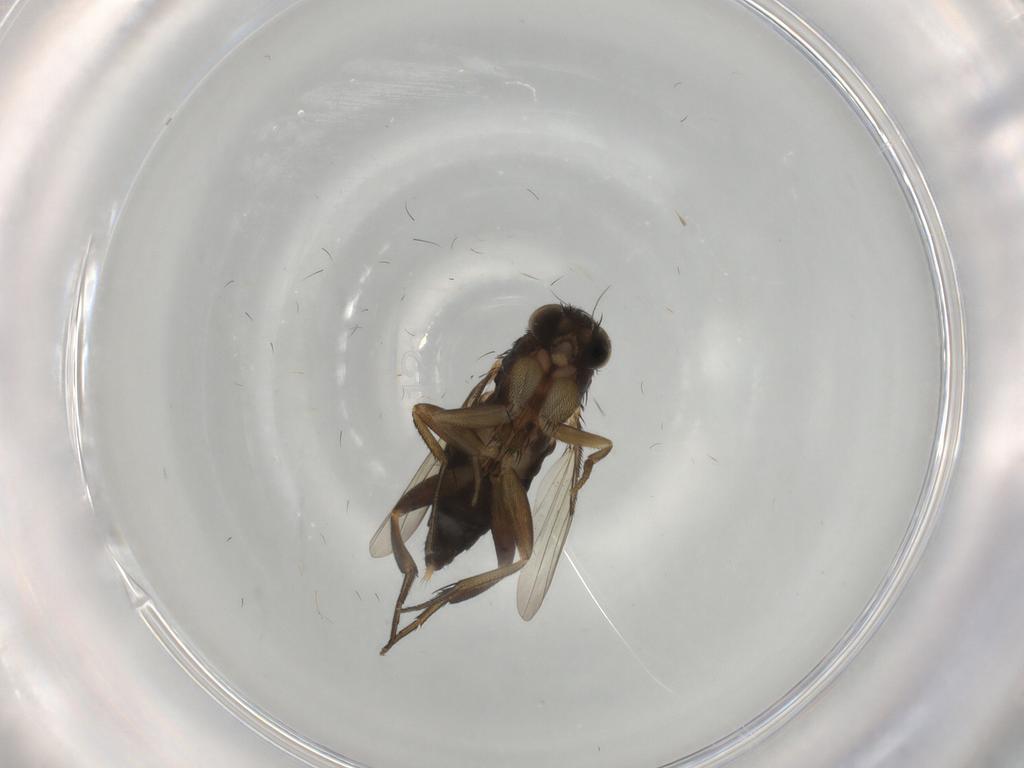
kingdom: Animalia
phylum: Arthropoda
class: Insecta
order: Diptera
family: Phoridae
